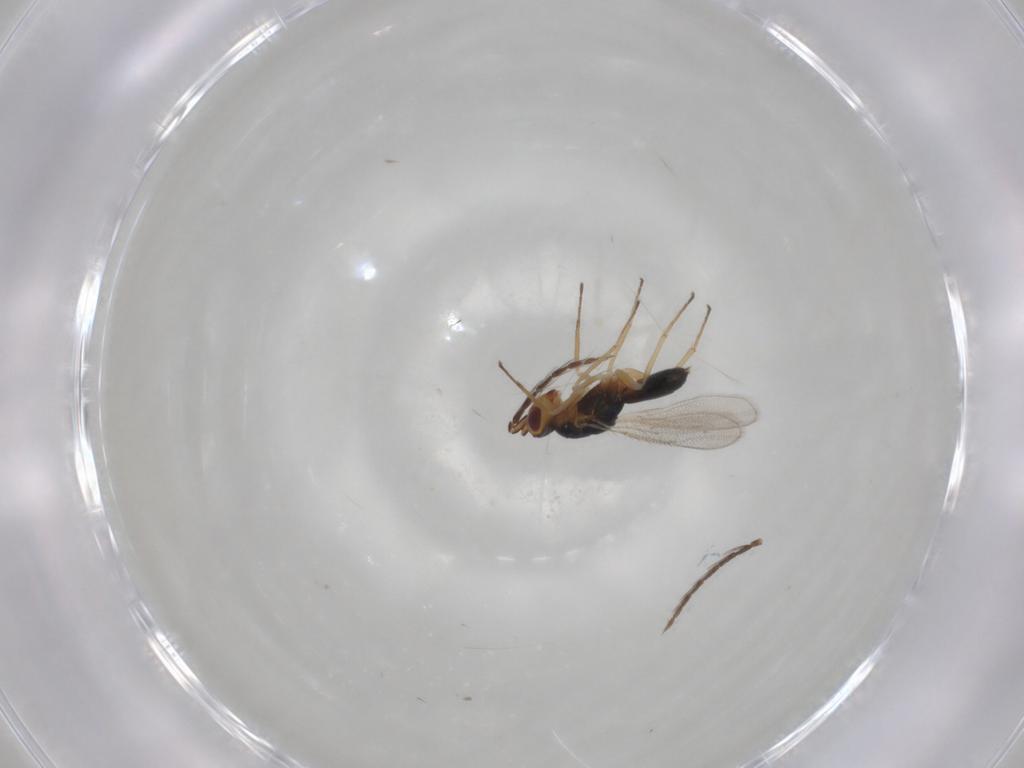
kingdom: Animalia
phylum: Arthropoda
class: Insecta
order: Hymenoptera
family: Eulophidae
